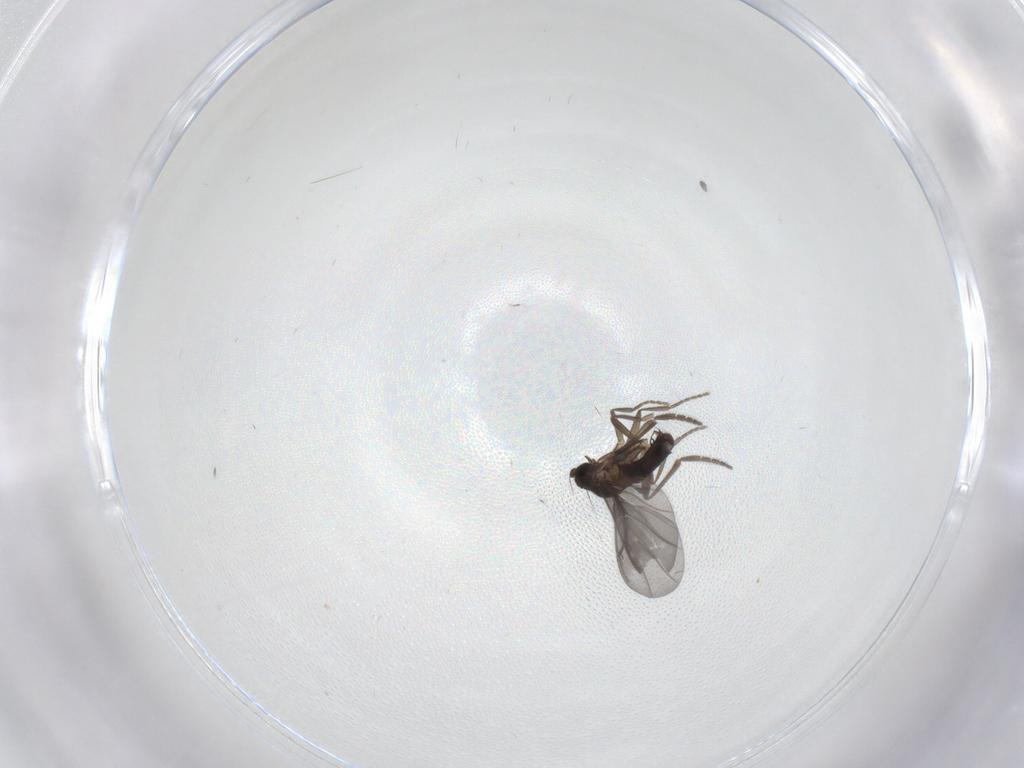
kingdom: Animalia
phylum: Arthropoda
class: Insecta
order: Diptera
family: Phoridae
